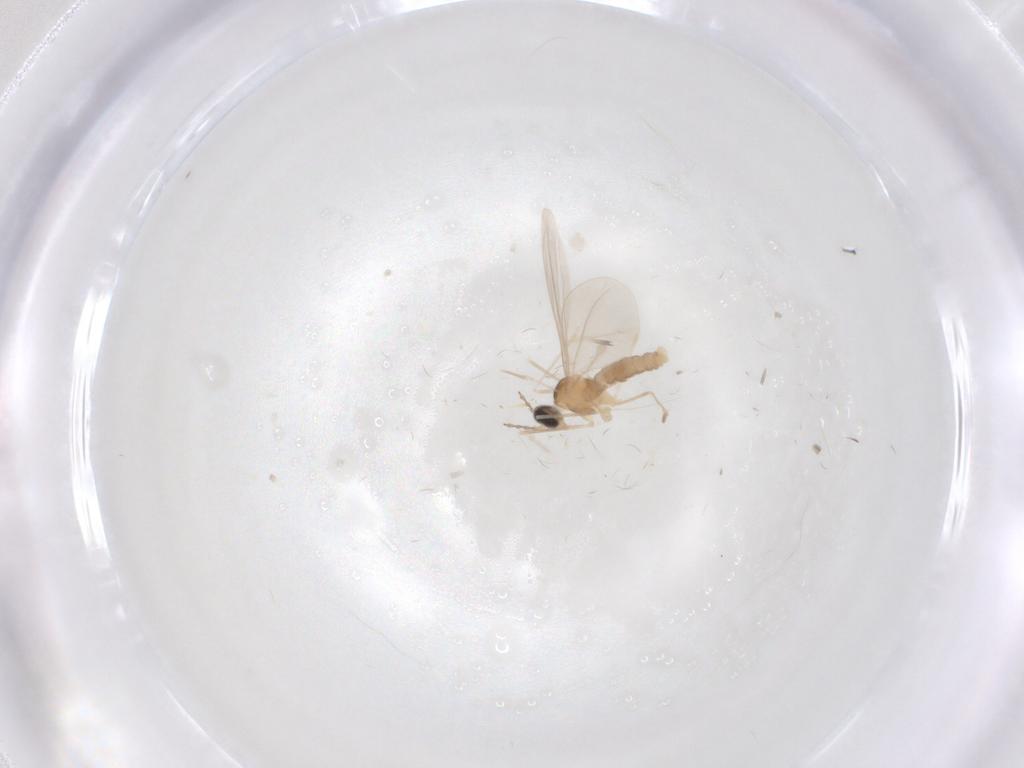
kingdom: Animalia
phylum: Arthropoda
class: Insecta
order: Diptera
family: Cecidomyiidae
